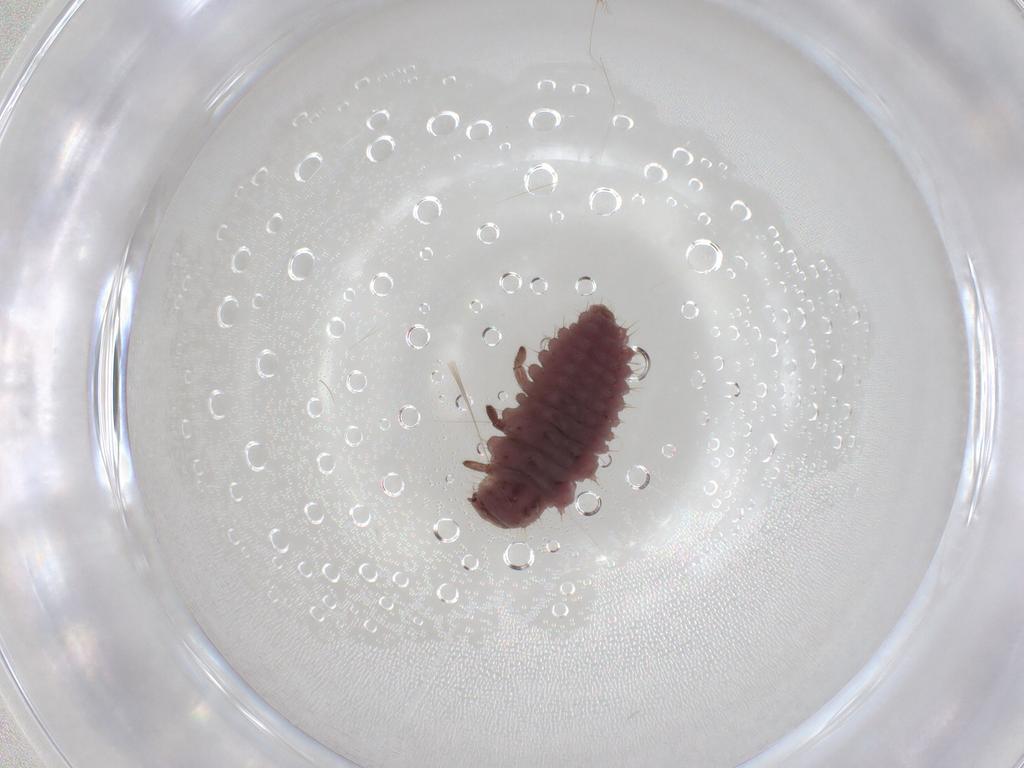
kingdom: Animalia
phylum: Arthropoda
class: Insecta
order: Coleoptera
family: Coccinellidae
